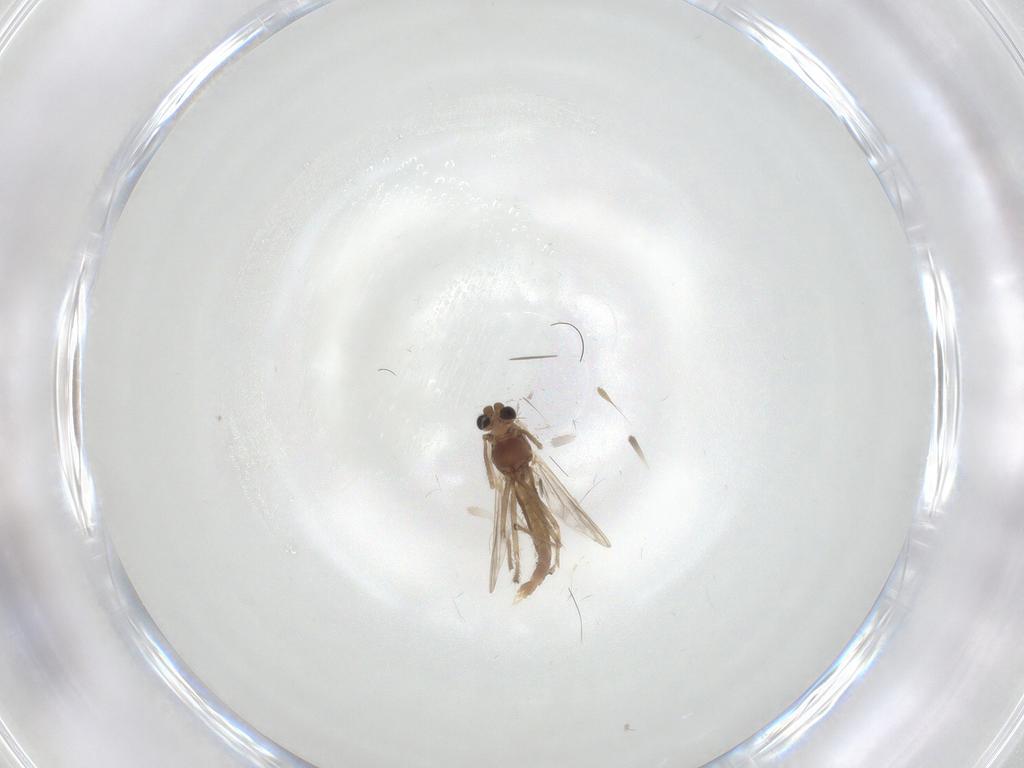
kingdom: Animalia
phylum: Arthropoda
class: Insecta
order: Diptera
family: Chironomidae
